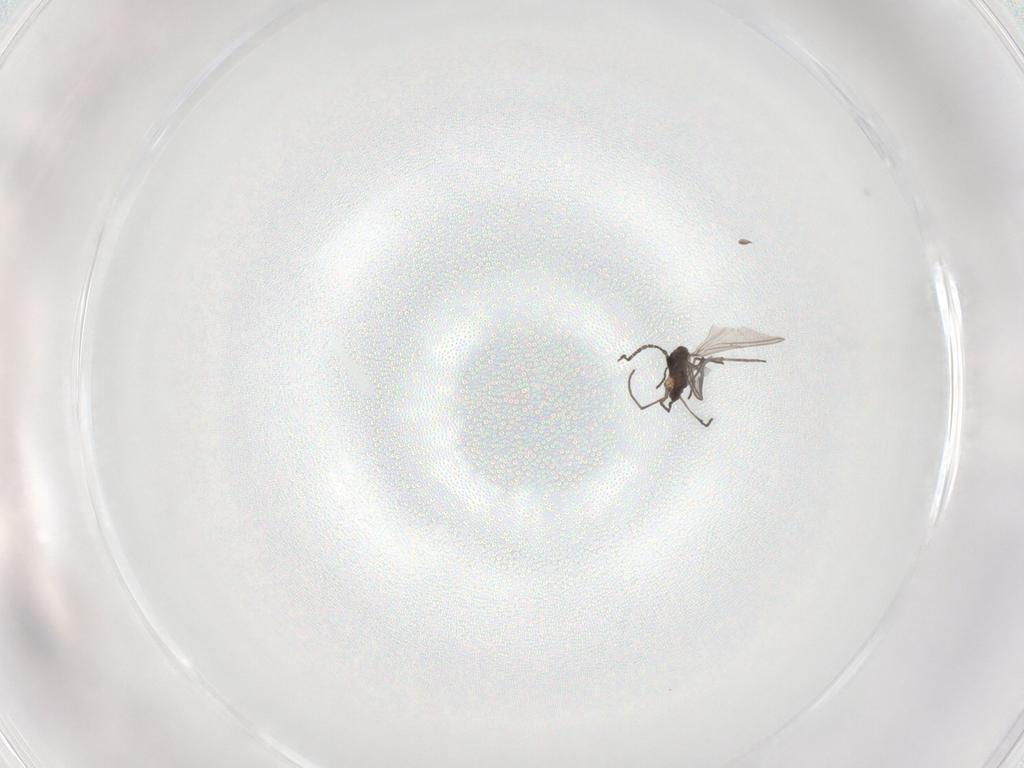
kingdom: Animalia
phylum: Arthropoda
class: Insecta
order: Diptera
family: Sciaridae
